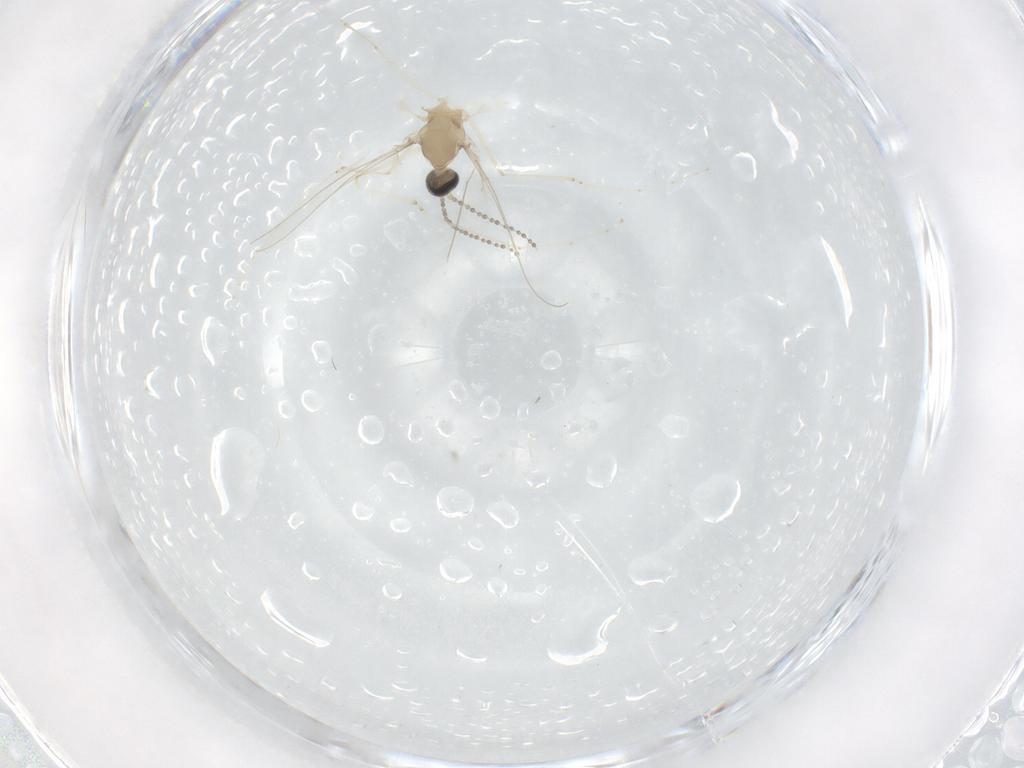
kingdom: Animalia
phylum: Arthropoda
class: Insecta
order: Diptera
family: Cecidomyiidae
